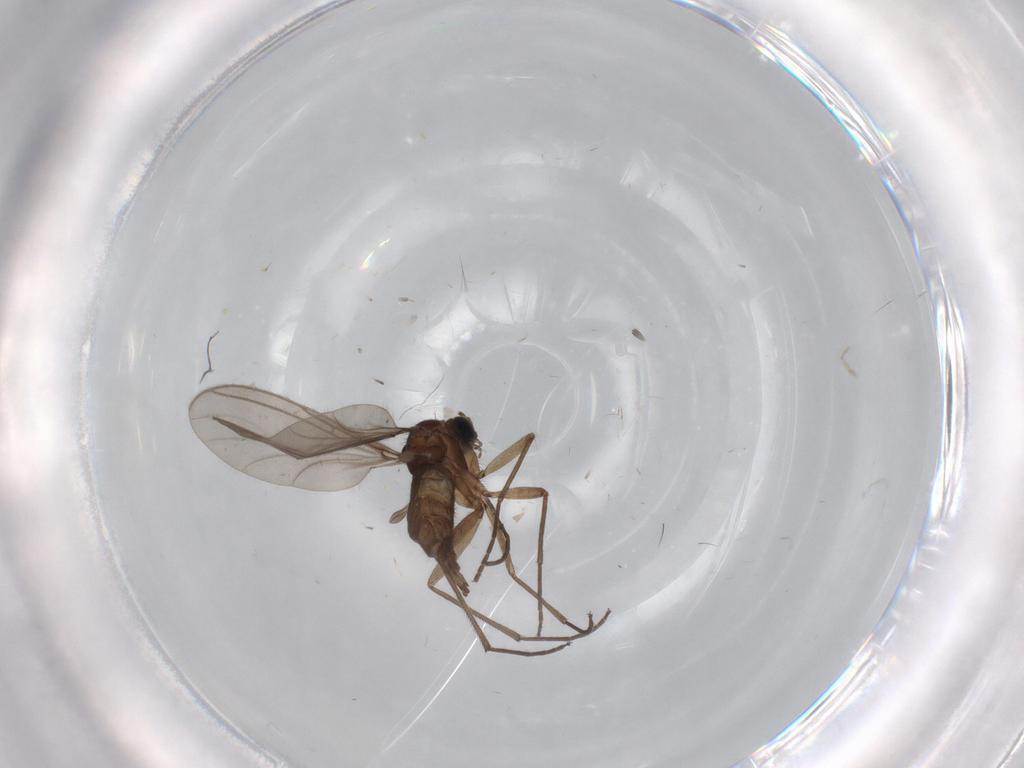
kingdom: Animalia
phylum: Arthropoda
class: Insecta
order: Diptera
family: Sciaridae
